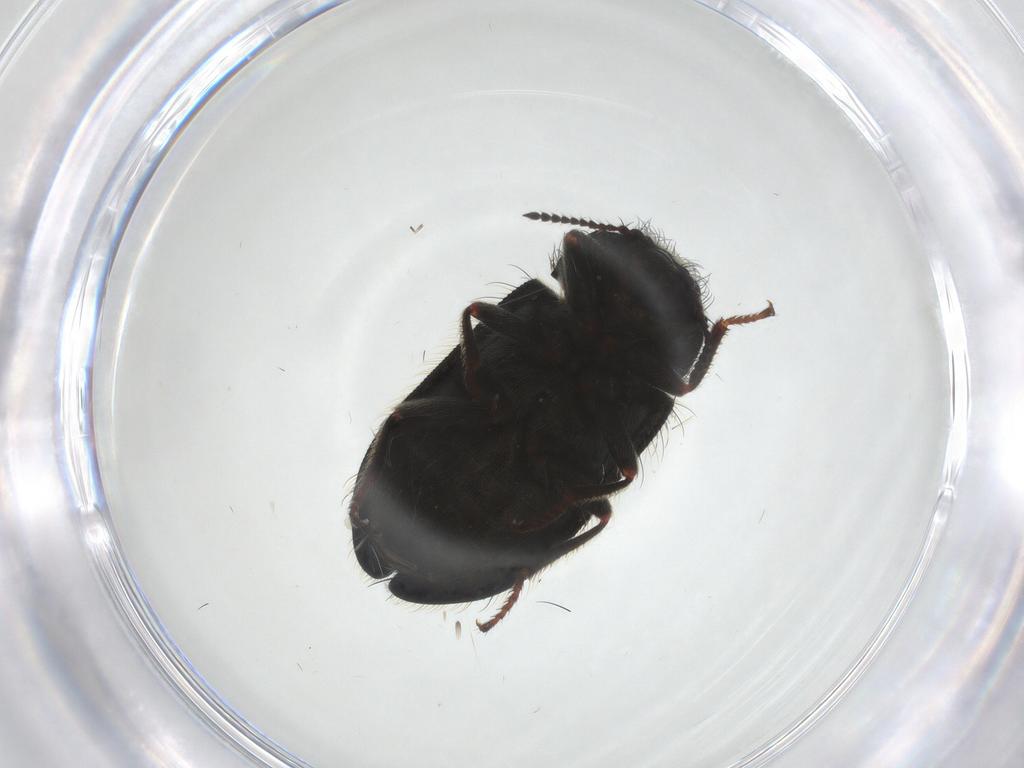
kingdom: Animalia
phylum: Arthropoda
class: Insecta
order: Coleoptera
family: Melyridae
